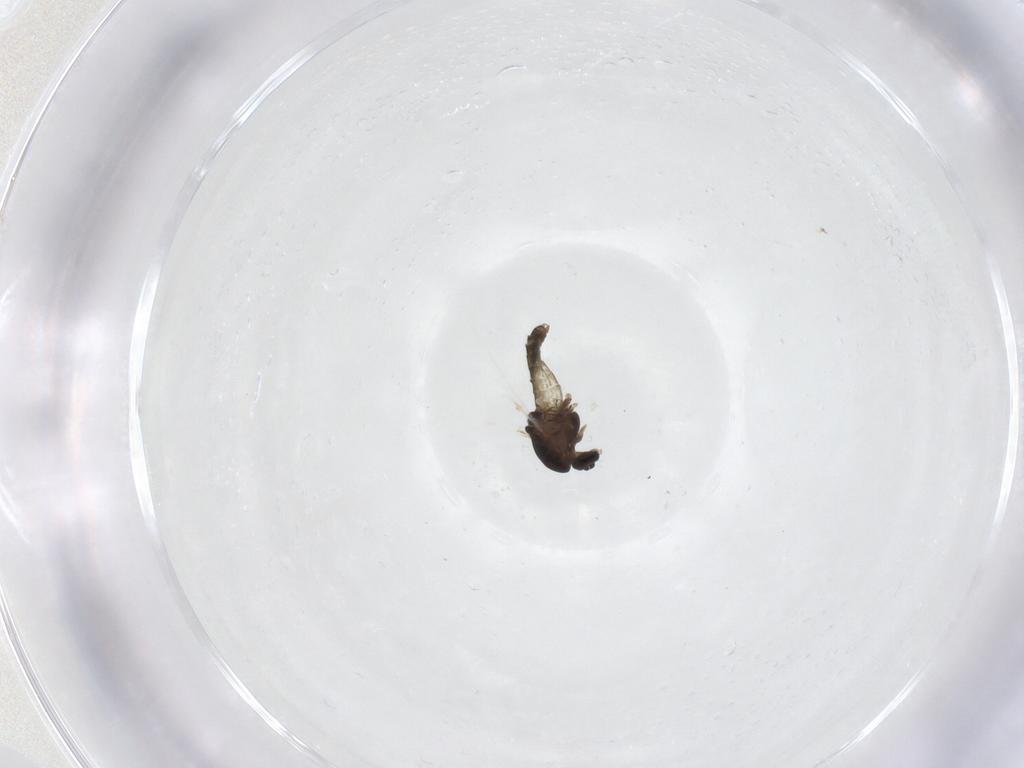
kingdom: Animalia
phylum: Arthropoda
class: Insecta
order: Diptera
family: Chironomidae
